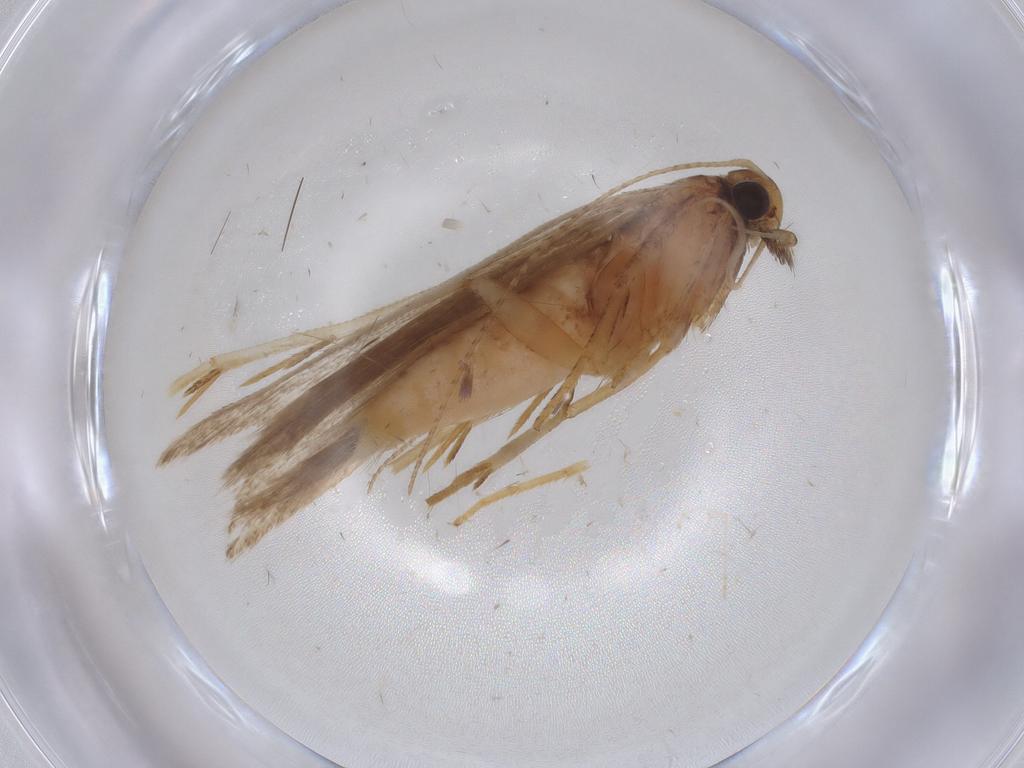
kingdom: Animalia
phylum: Arthropoda
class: Insecta
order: Lepidoptera
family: Gelechiidae
